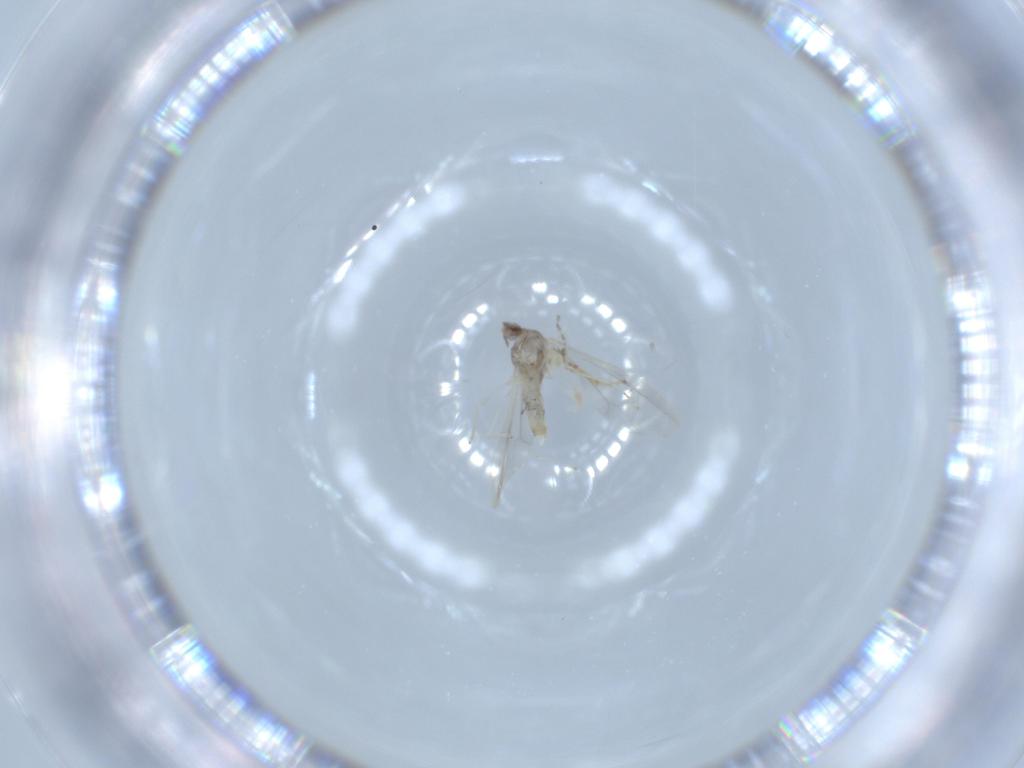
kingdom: Animalia
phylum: Arthropoda
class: Insecta
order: Diptera
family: Cecidomyiidae
